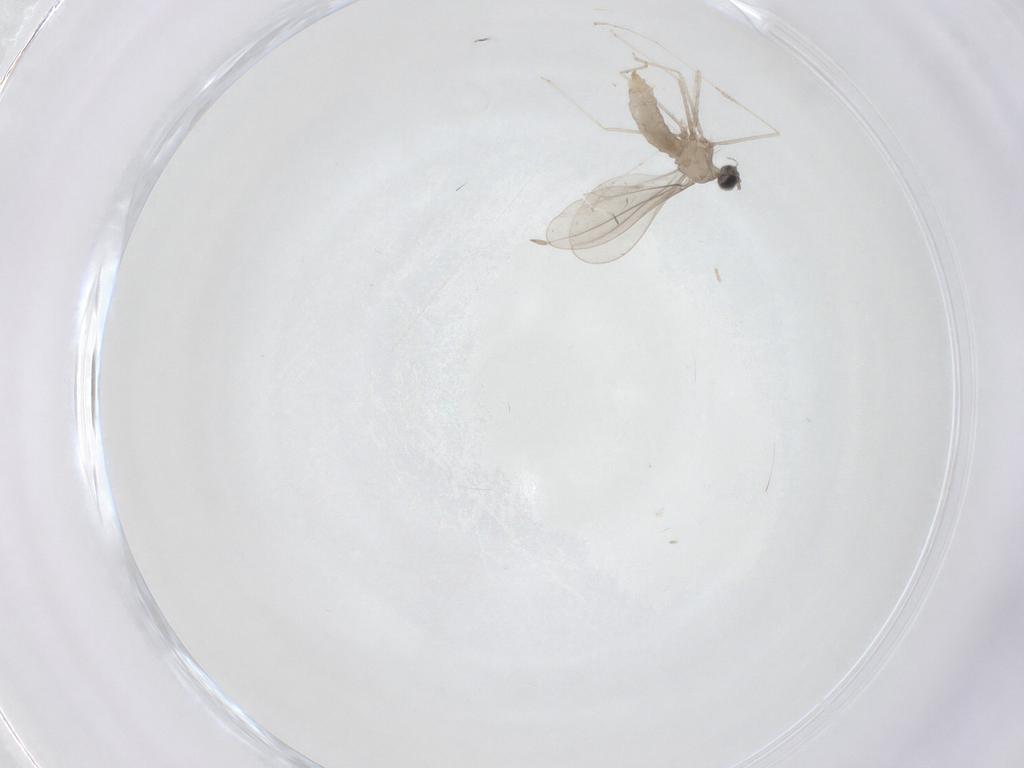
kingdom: Animalia
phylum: Arthropoda
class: Insecta
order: Diptera
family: Cecidomyiidae
